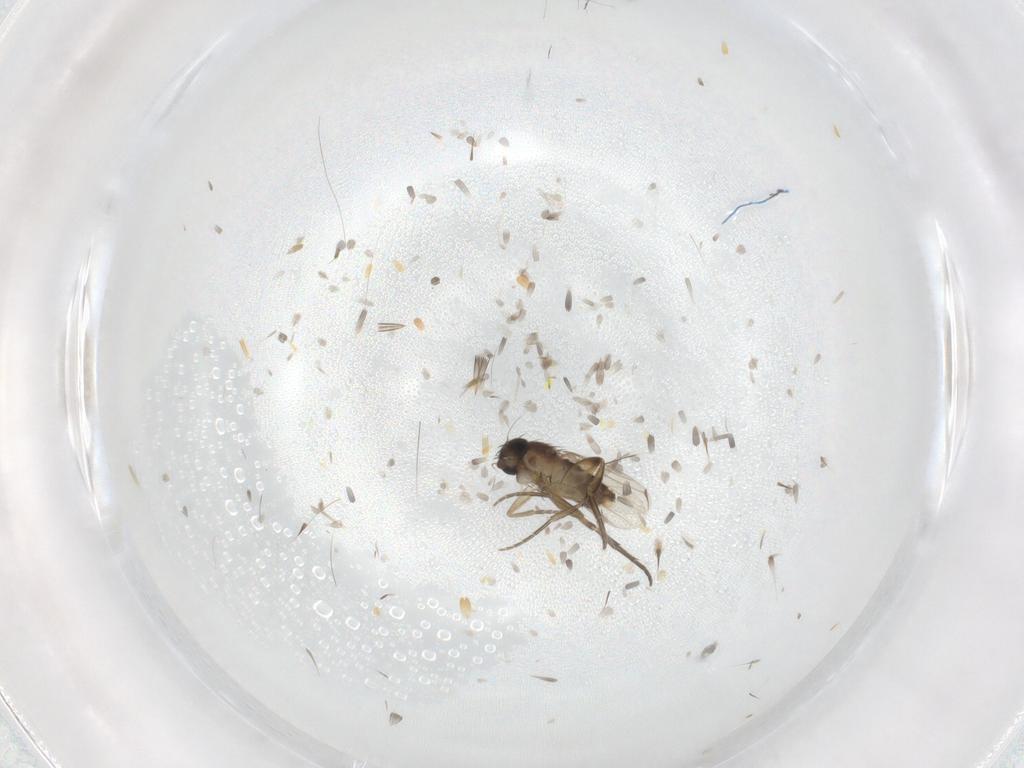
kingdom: Animalia
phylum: Arthropoda
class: Insecta
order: Diptera
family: Phoridae
